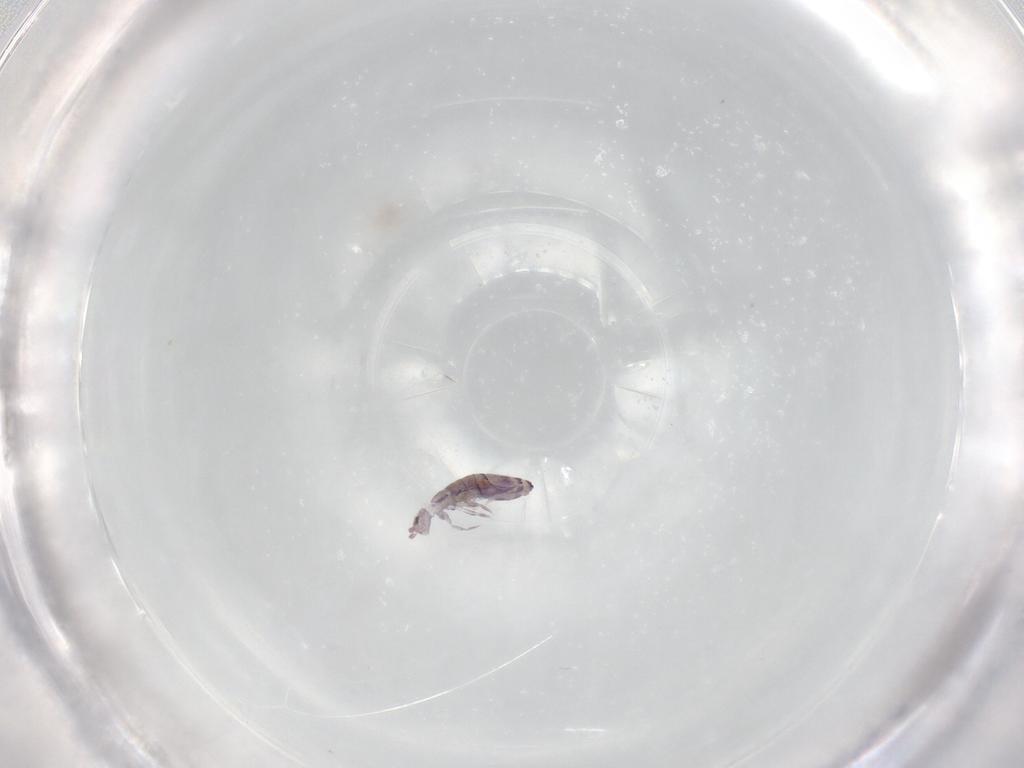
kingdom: Animalia
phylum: Arthropoda
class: Collembola
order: Entomobryomorpha
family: Entomobryidae
